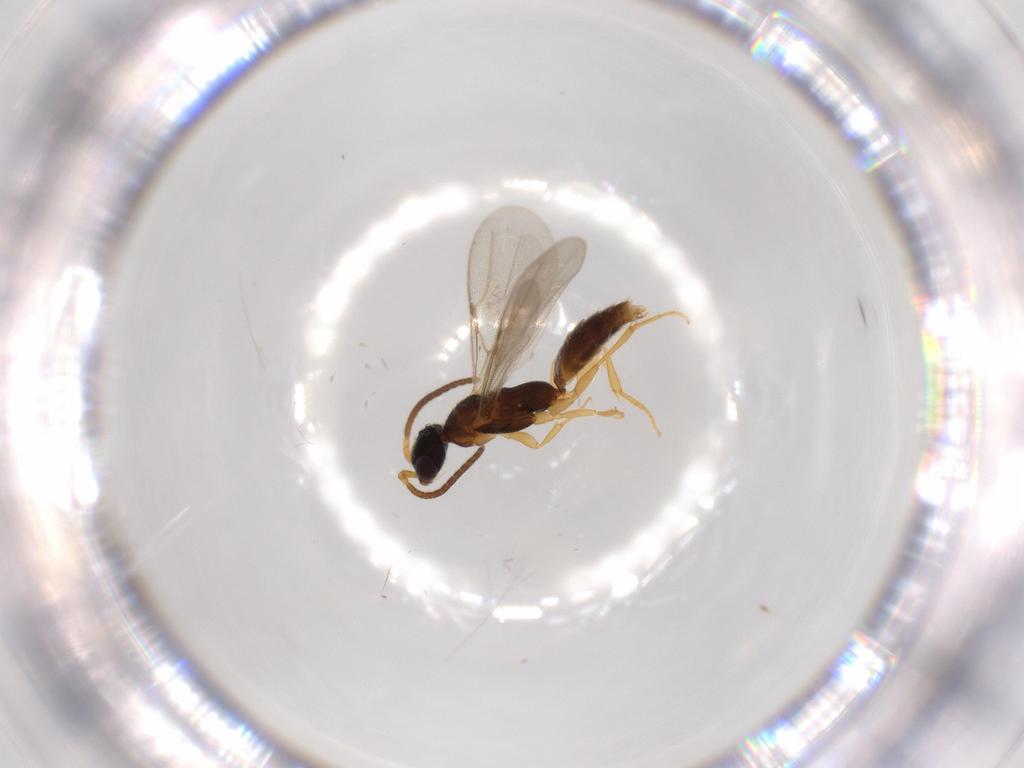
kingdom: Animalia
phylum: Arthropoda
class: Insecta
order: Hymenoptera
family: Bethylidae
